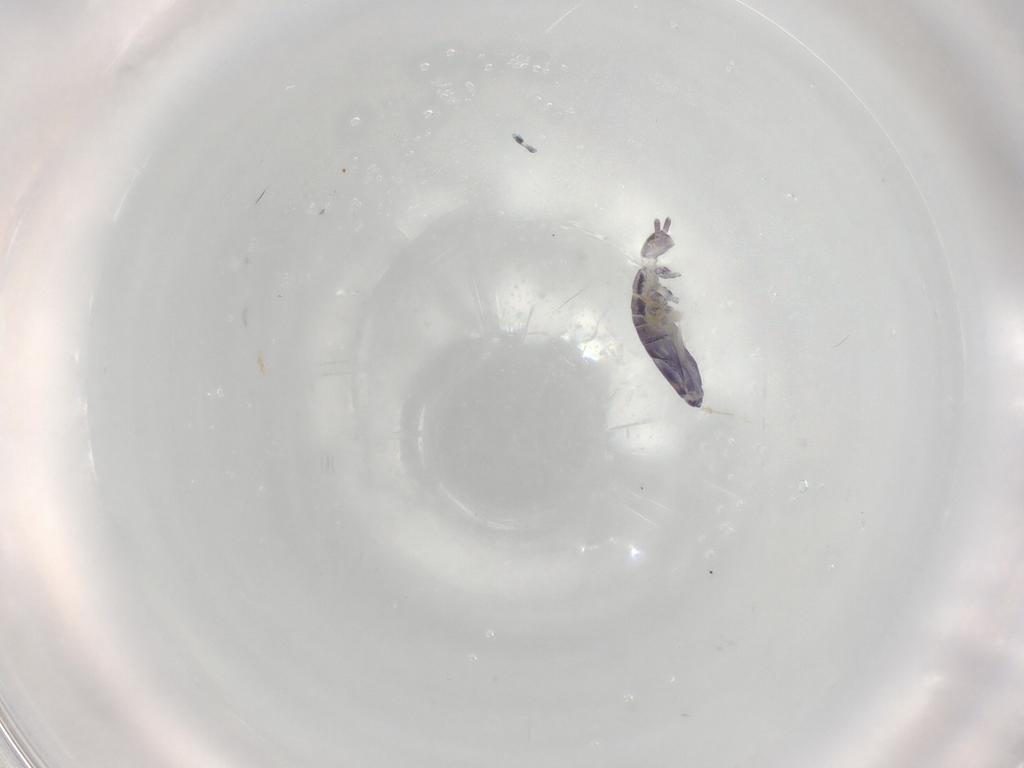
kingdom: Animalia
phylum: Arthropoda
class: Collembola
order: Entomobryomorpha
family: Entomobryidae
